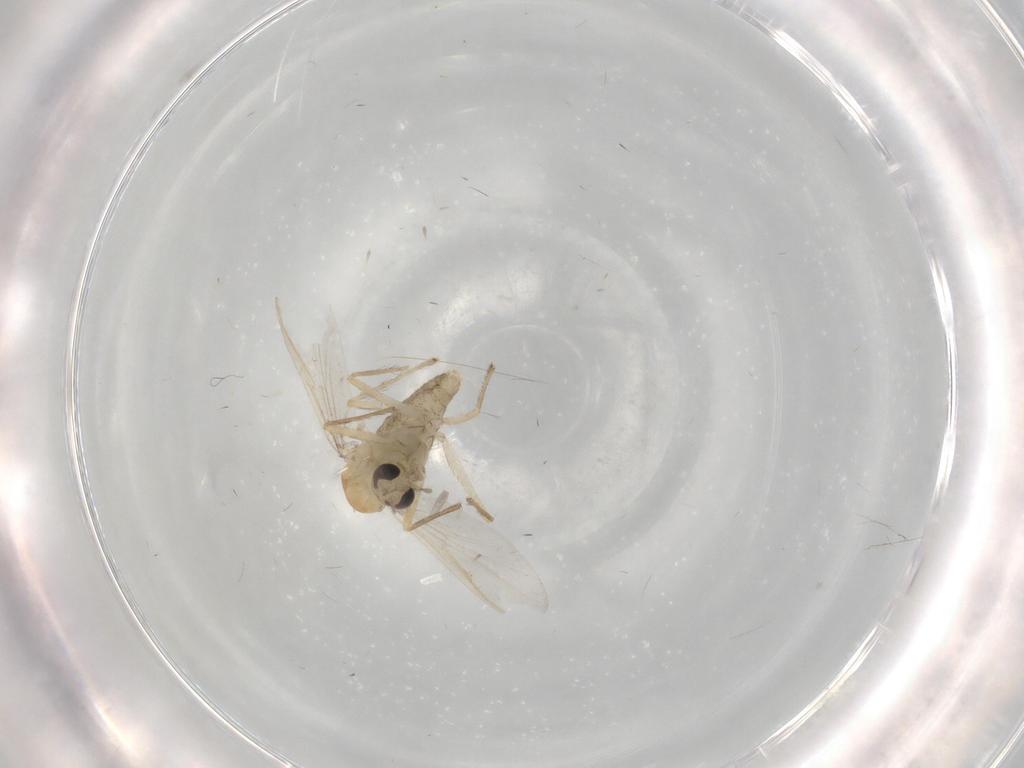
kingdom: Animalia
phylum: Arthropoda
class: Insecta
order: Diptera
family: Chironomidae
